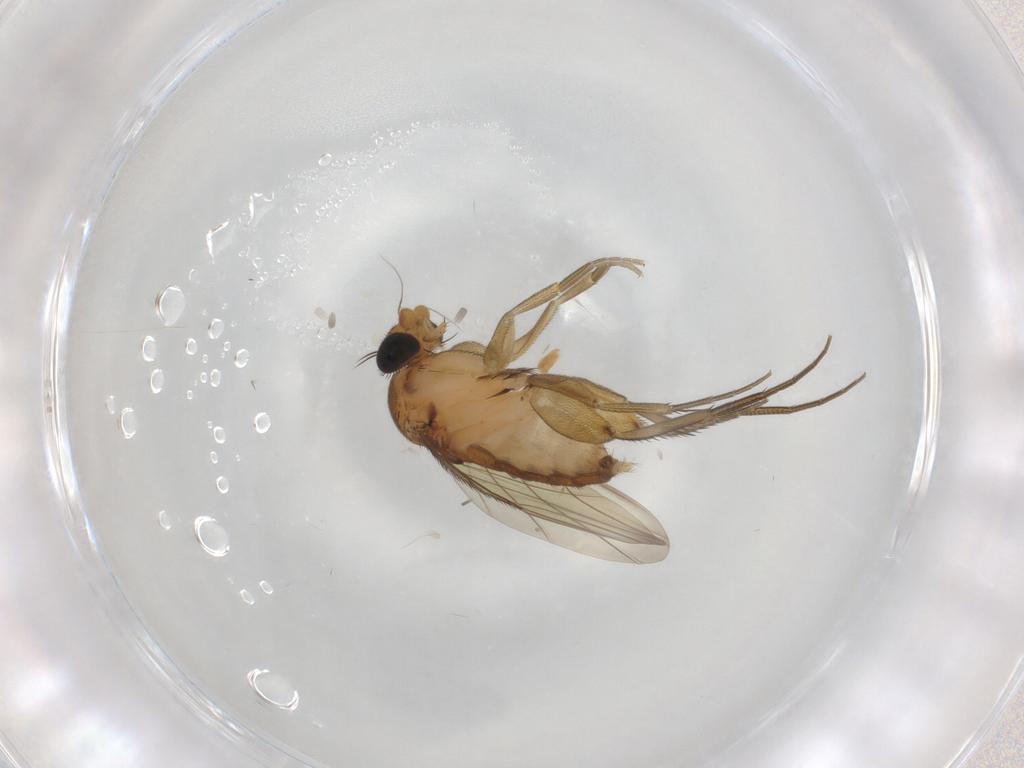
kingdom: Animalia
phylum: Arthropoda
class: Insecta
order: Diptera
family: Phoridae
